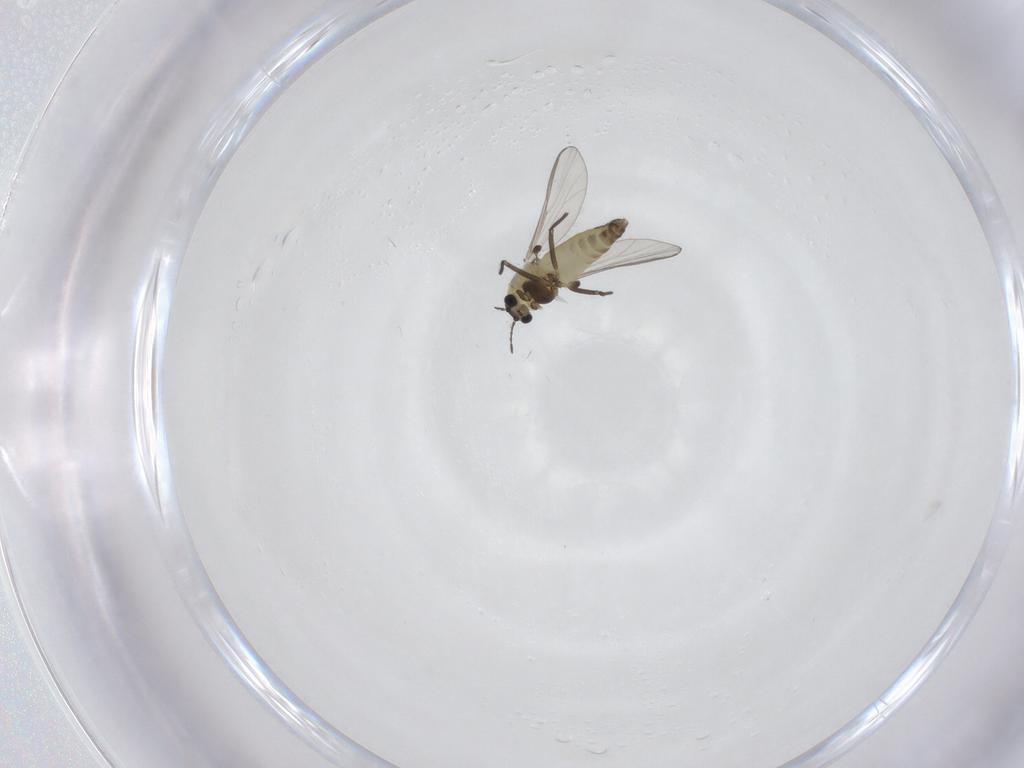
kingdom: Animalia
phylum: Arthropoda
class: Insecta
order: Diptera
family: Chironomidae
